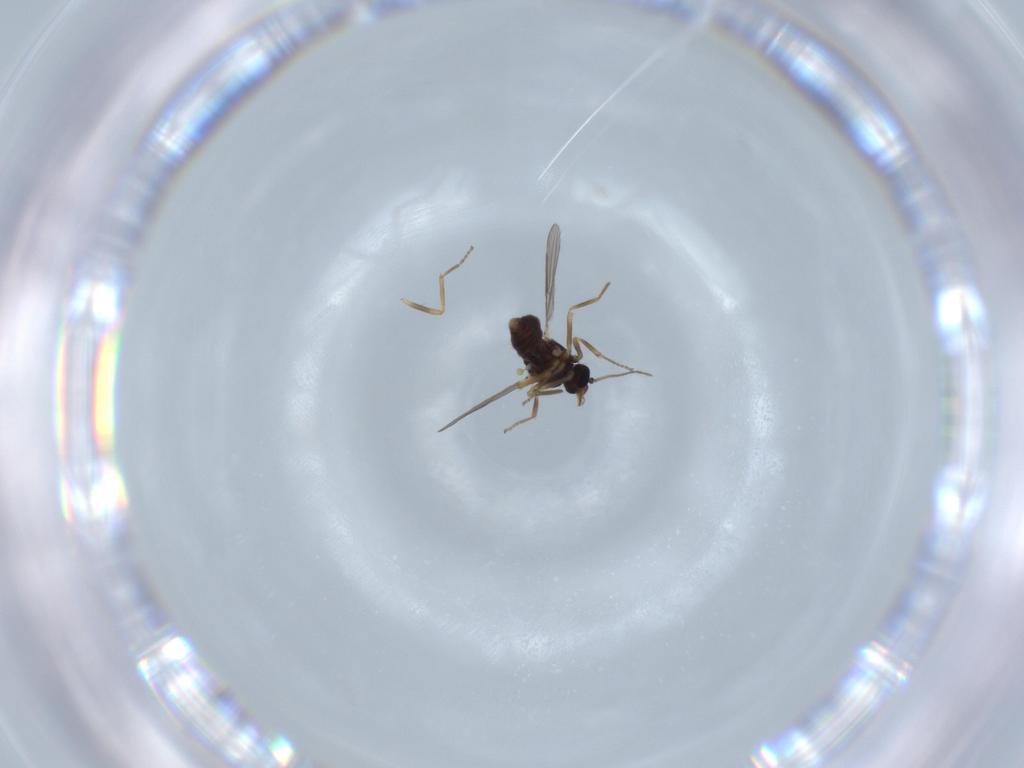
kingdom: Animalia
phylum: Arthropoda
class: Insecta
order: Diptera
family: Ceratopogonidae
